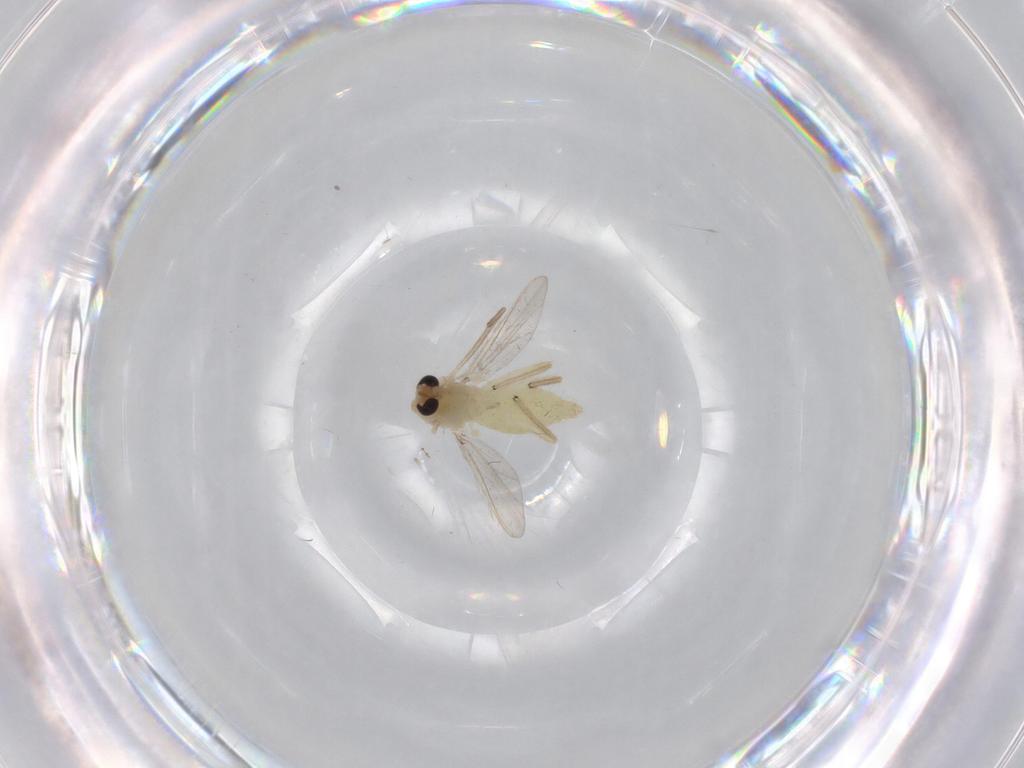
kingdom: Animalia
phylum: Arthropoda
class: Insecta
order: Diptera
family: Chironomidae
